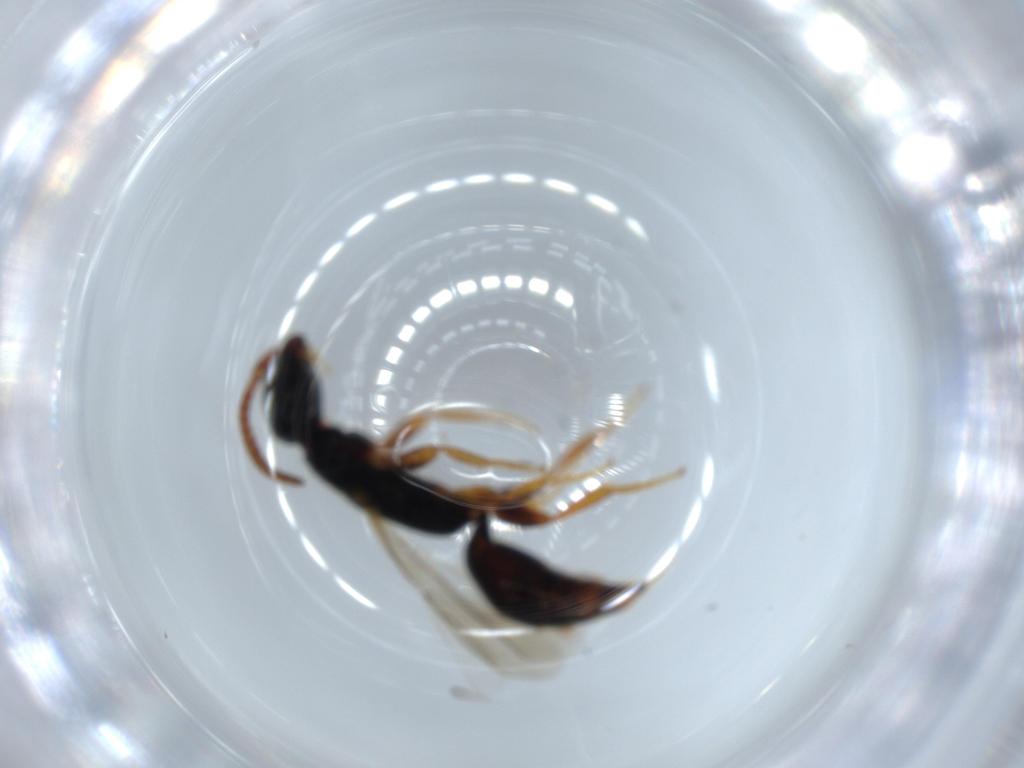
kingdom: Animalia
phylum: Arthropoda
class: Insecta
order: Hymenoptera
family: Bethylidae
